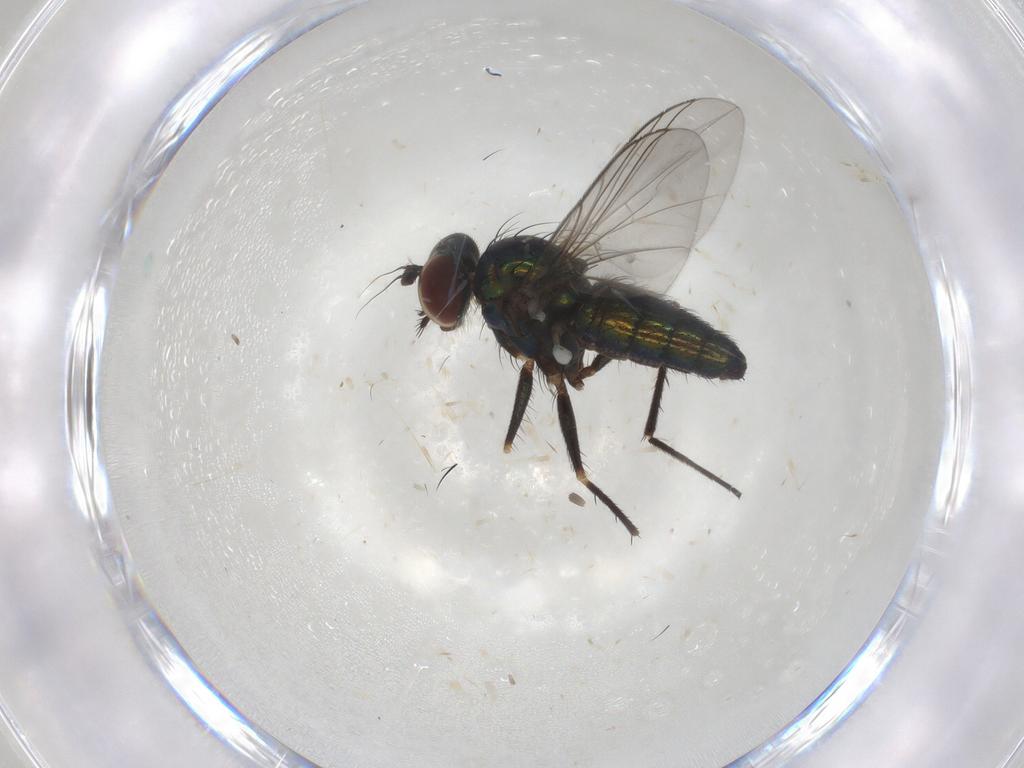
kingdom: Animalia
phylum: Arthropoda
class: Insecta
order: Diptera
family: Dolichopodidae
